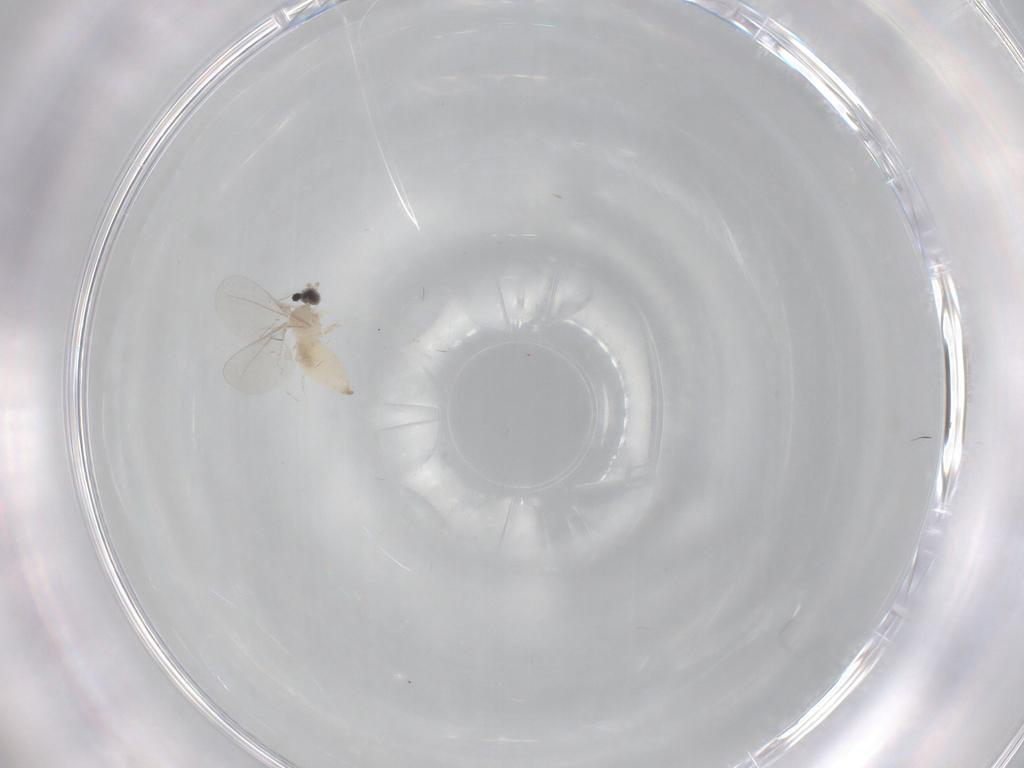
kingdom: Animalia
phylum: Arthropoda
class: Insecta
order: Diptera
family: Cecidomyiidae
